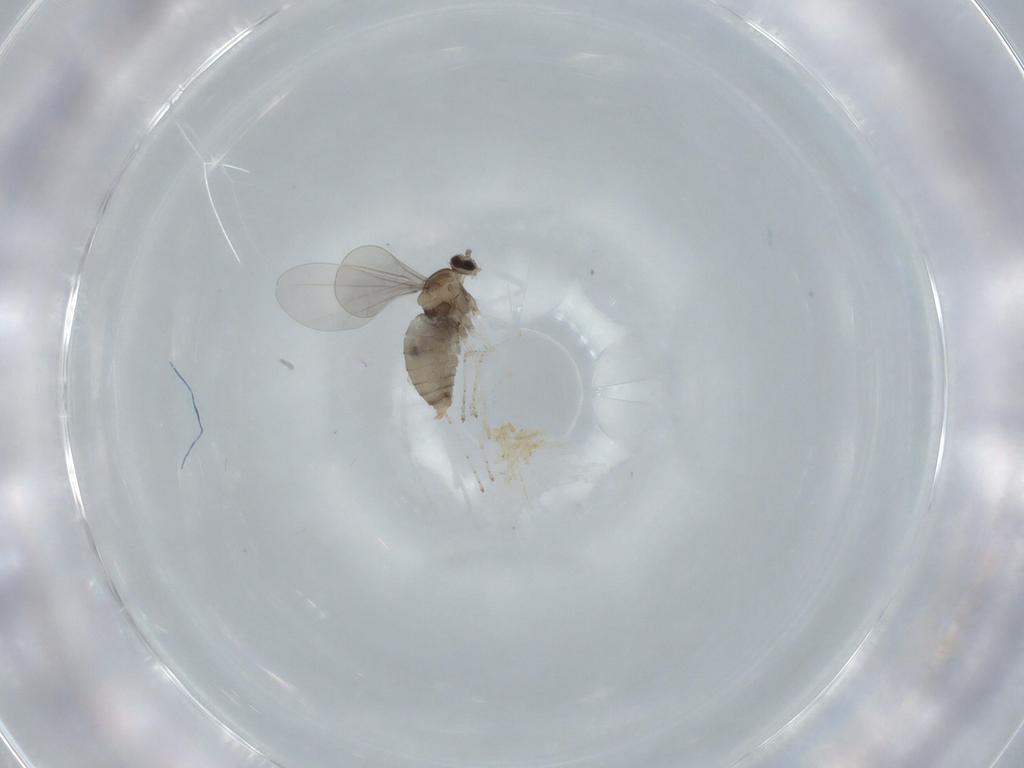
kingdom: Animalia
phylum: Arthropoda
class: Insecta
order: Diptera
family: Cecidomyiidae
